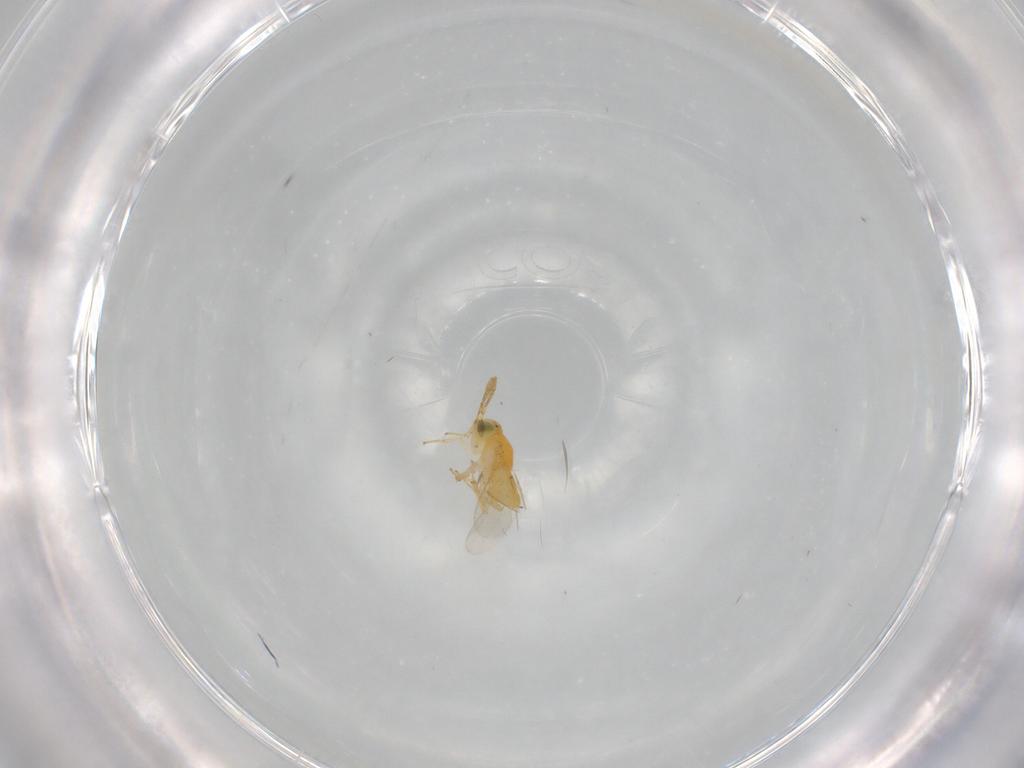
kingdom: Animalia
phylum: Arthropoda
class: Insecta
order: Hymenoptera
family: Encyrtidae
